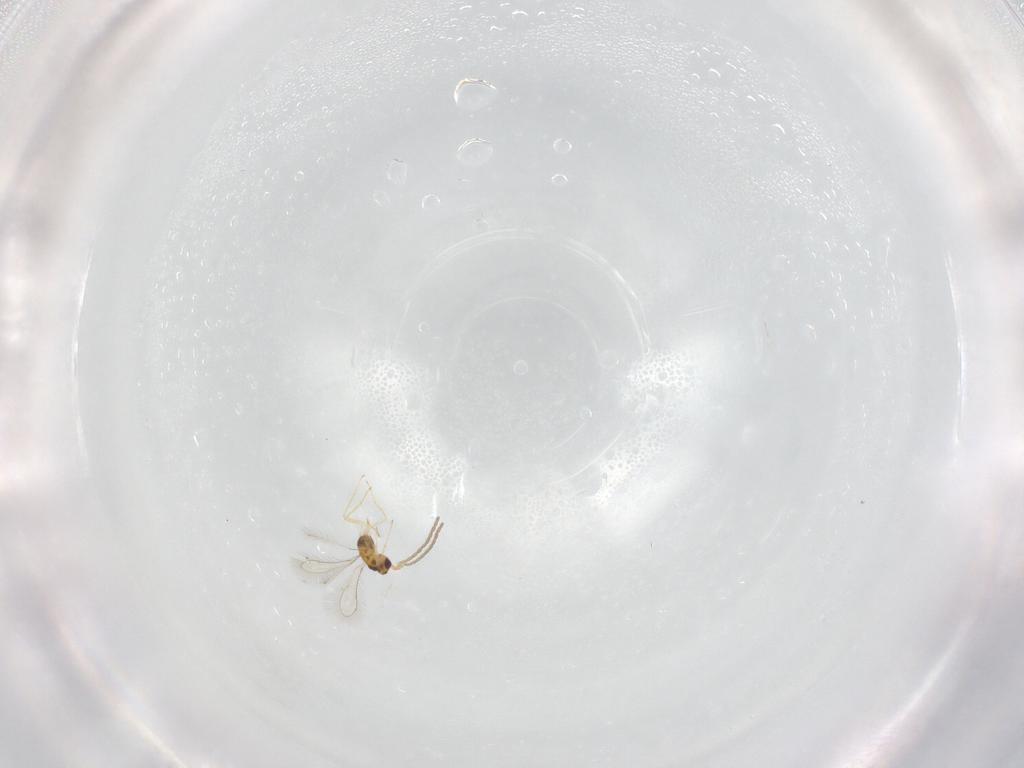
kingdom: Animalia
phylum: Arthropoda
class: Insecta
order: Hymenoptera
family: Mymaridae
